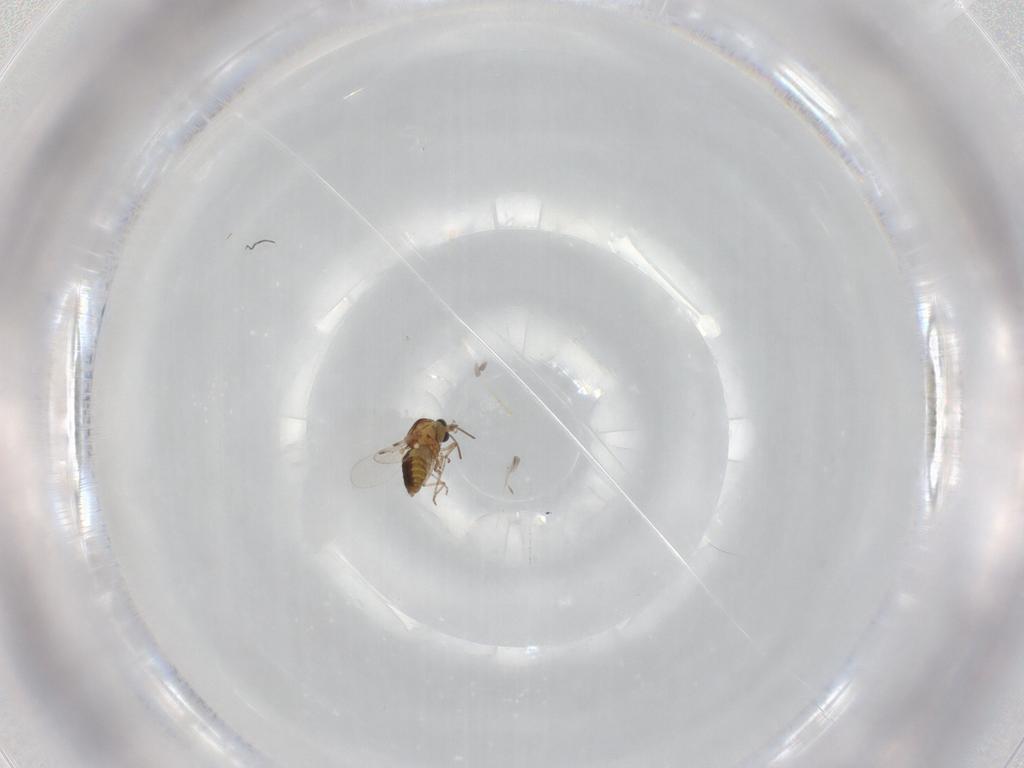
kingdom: Animalia
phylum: Arthropoda
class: Insecta
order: Diptera
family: Ceratopogonidae
